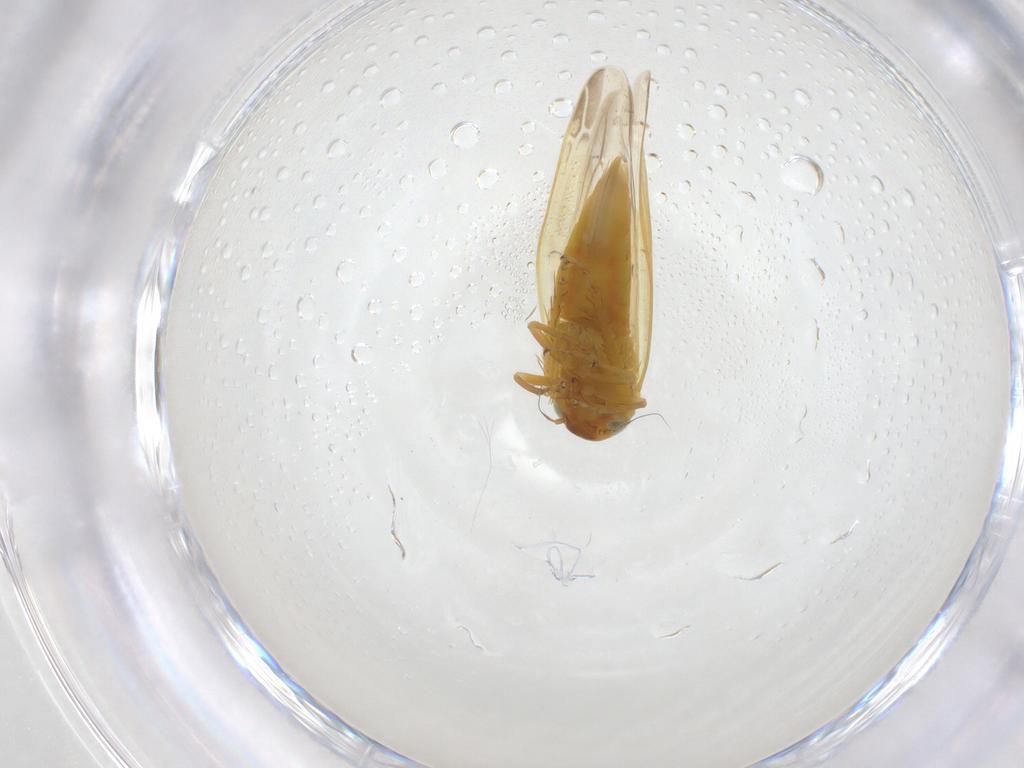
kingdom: Animalia
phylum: Arthropoda
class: Insecta
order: Hemiptera
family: Cicadellidae
